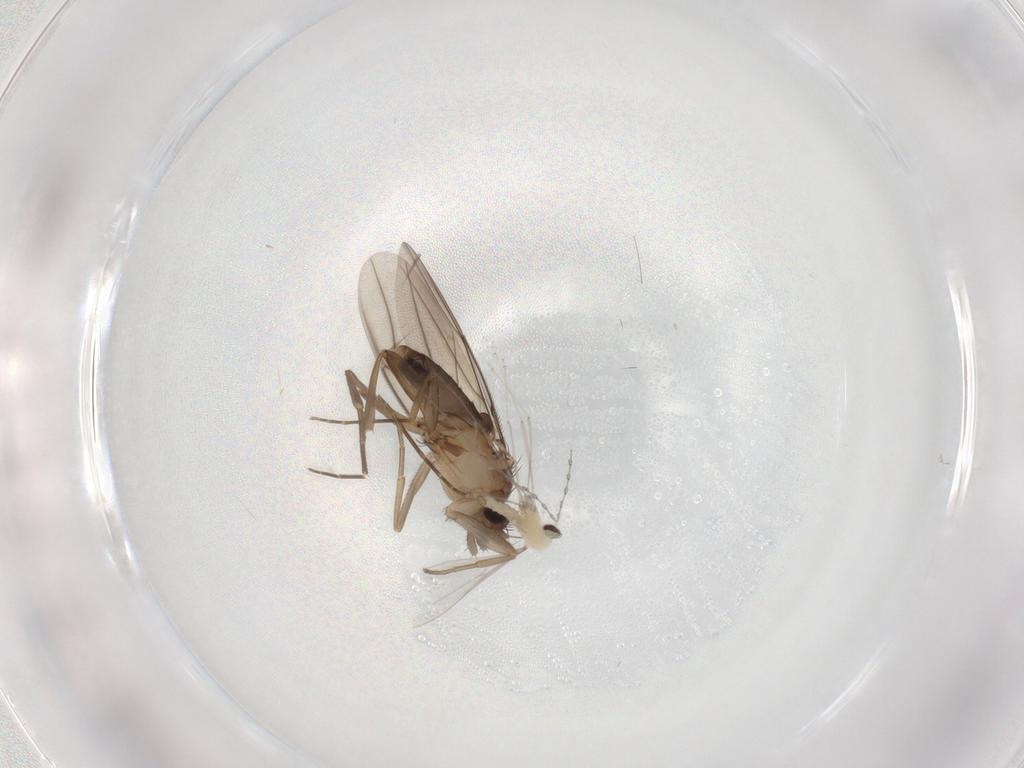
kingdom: Animalia
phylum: Arthropoda
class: Insecta
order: Diptera
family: Cecidomyiidae
